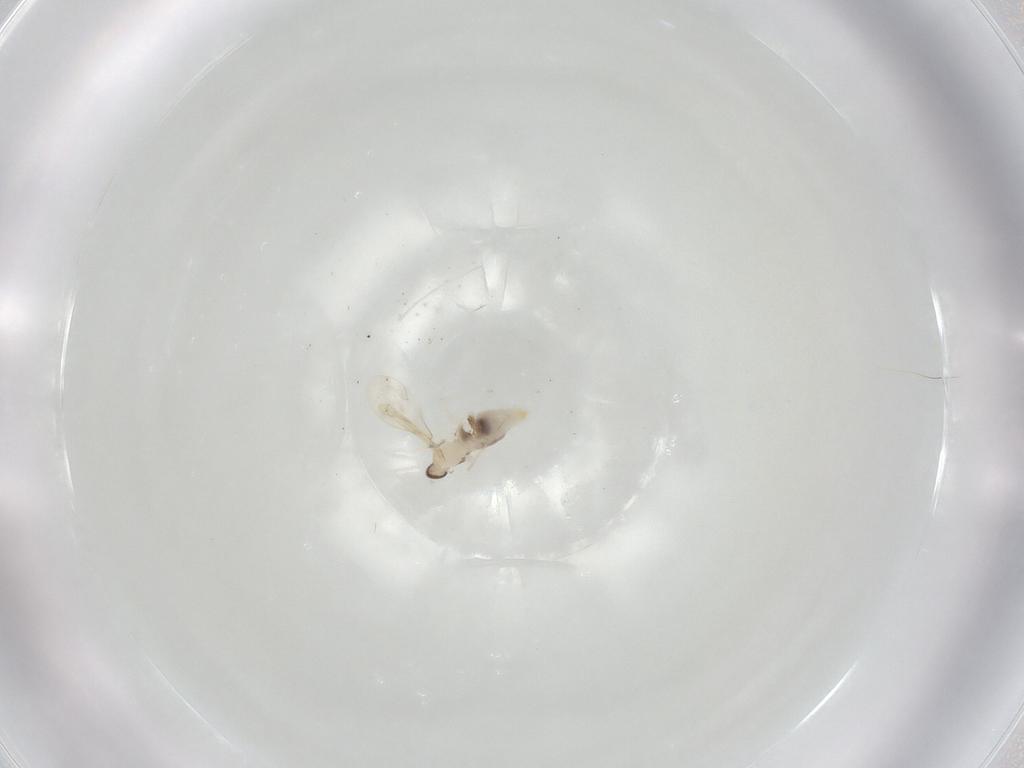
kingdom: Animalia
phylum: Arthropoda
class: Insecta
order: Diptera
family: Cecidomyiidae
